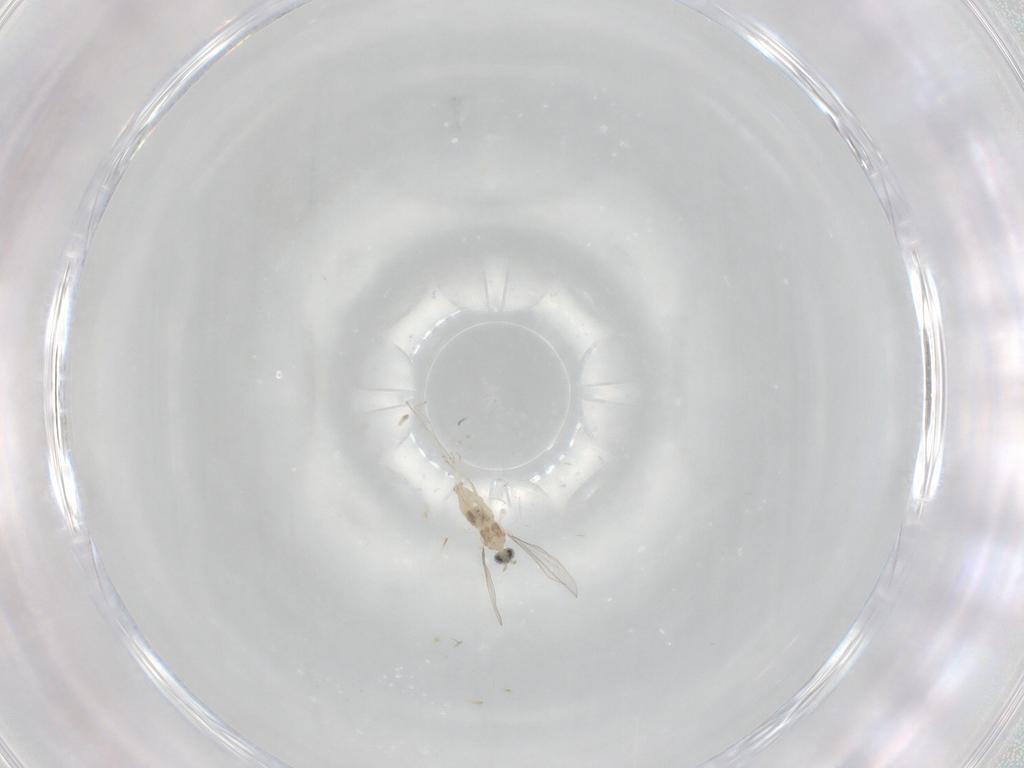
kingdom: Animalia
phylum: Arthropoda
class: Insecta
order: Diptera
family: Cecidomyiidae
